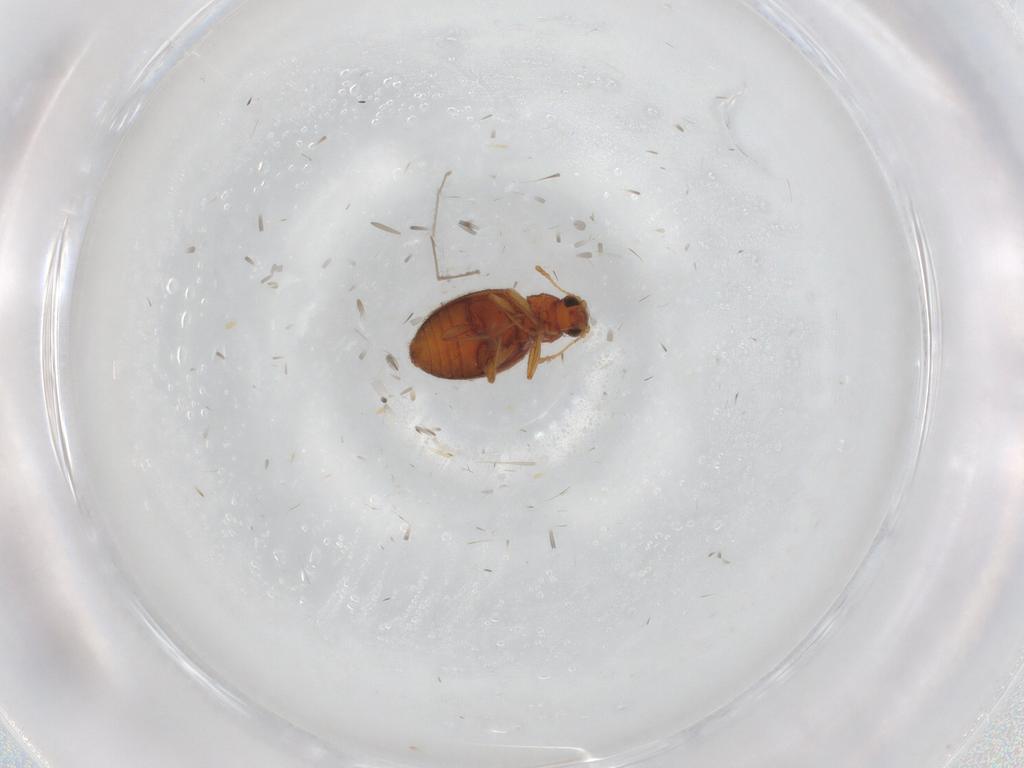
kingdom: Animalia
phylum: Arthropoda
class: Insecta
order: Coleoptera
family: Latridiidae
